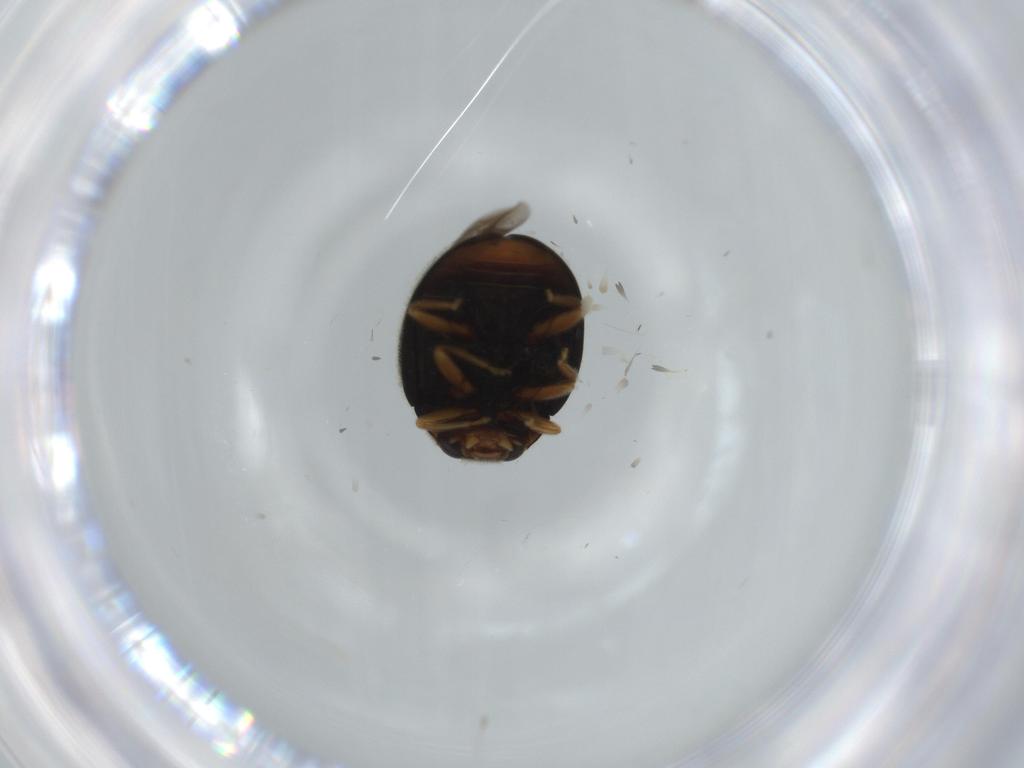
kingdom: Animalia
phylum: Arthropoda
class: Insecta
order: Coleoptera
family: Coccinellidae
